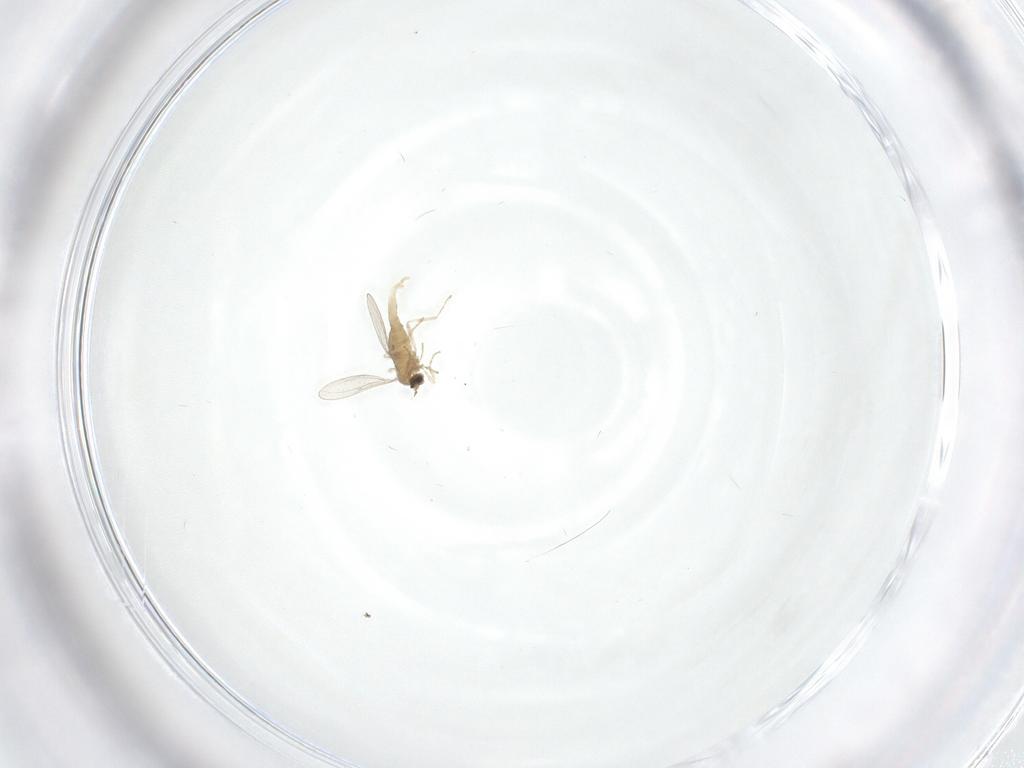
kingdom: Animalia
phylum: Arthropoda
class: Insecta
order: Diptera
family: Cecidomyiidae
